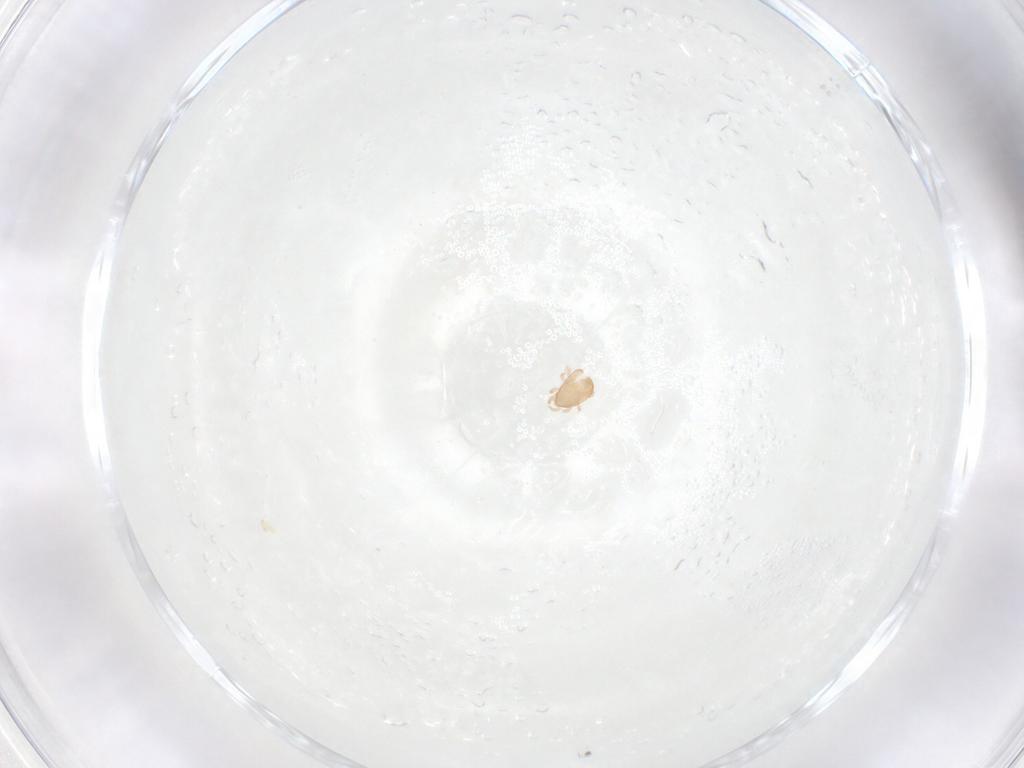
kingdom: Animalia
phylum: Arthropoda
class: Arachnida
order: Mesostigmata
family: Ascidae
